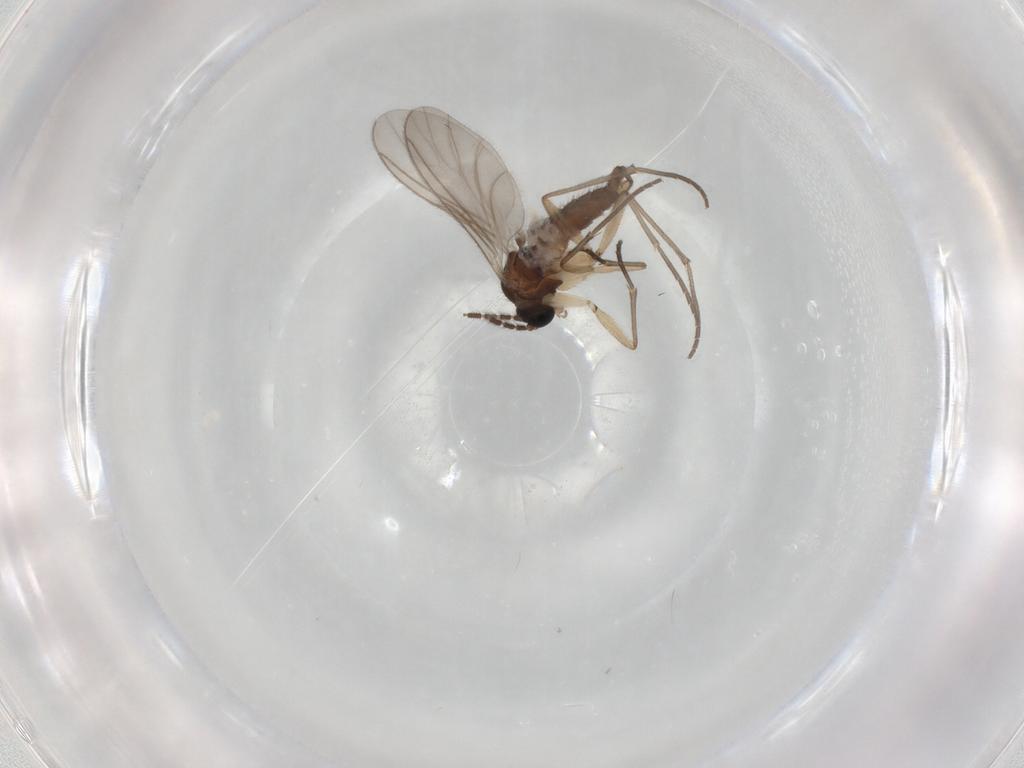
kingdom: Animalia
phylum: Arthropoda
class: Insecta
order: Diptera
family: Sciaridae
